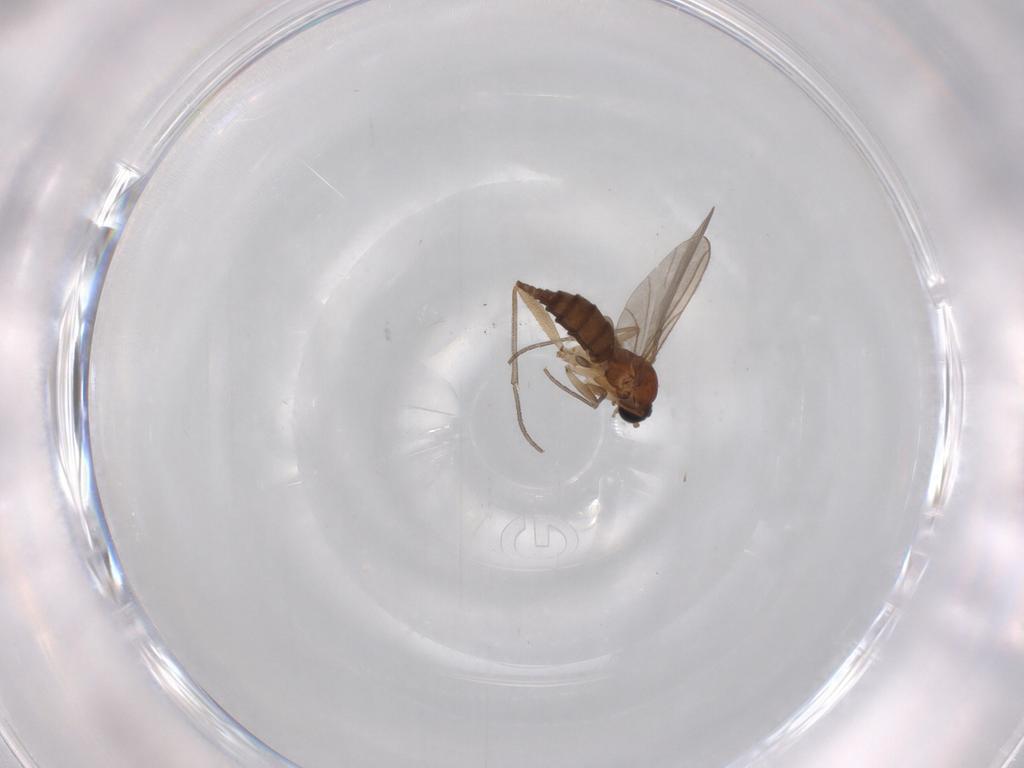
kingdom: Animalia
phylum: Arthropoda
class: Insecta
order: Diptera
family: Sciaridae
